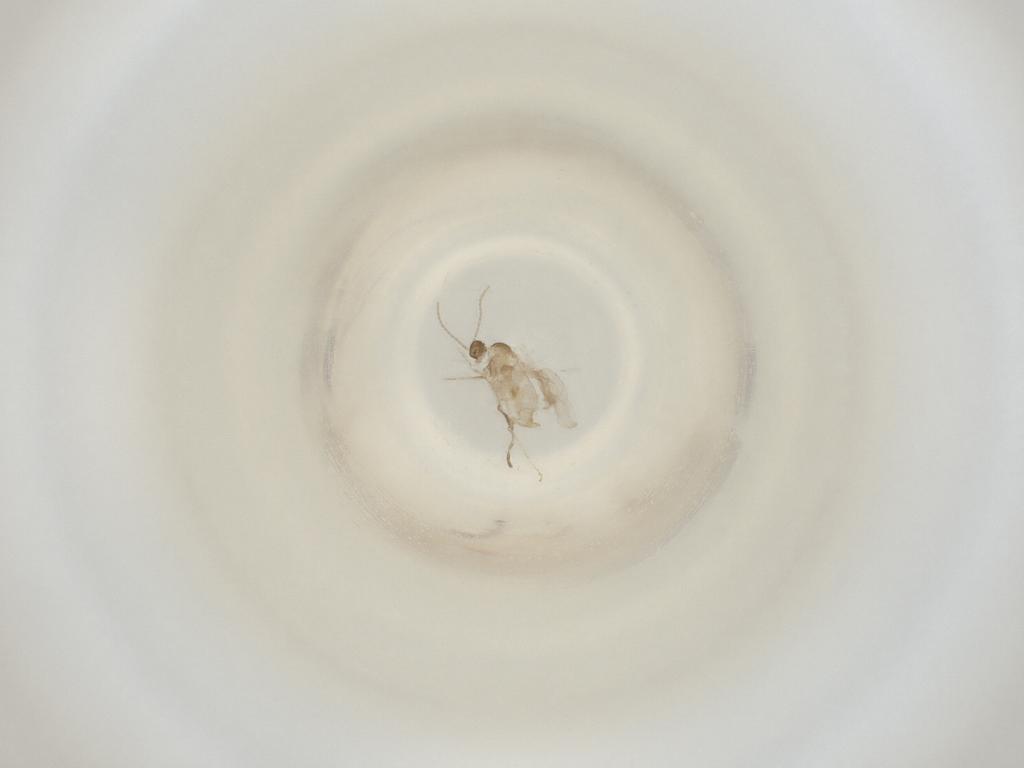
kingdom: Animalia
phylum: Arthropoda
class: Insecta
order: Diptera
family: Cecidomyiidae
